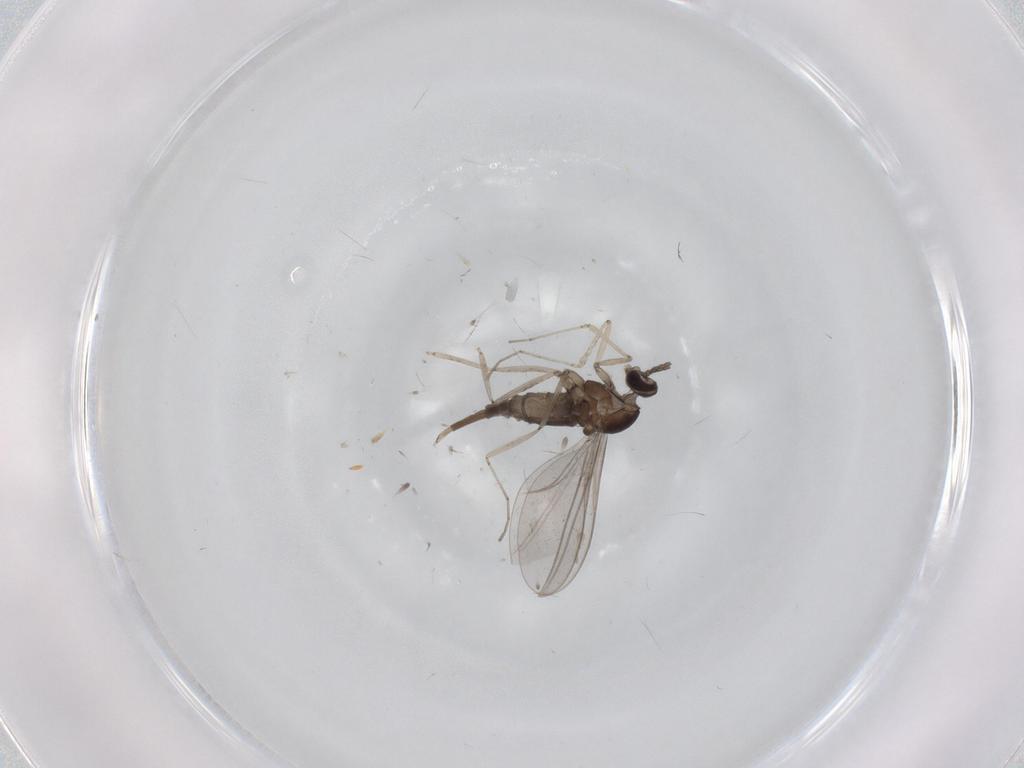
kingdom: Animalia
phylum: Arthropoda
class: Insecta
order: Diptera
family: Cecidomyiidae
